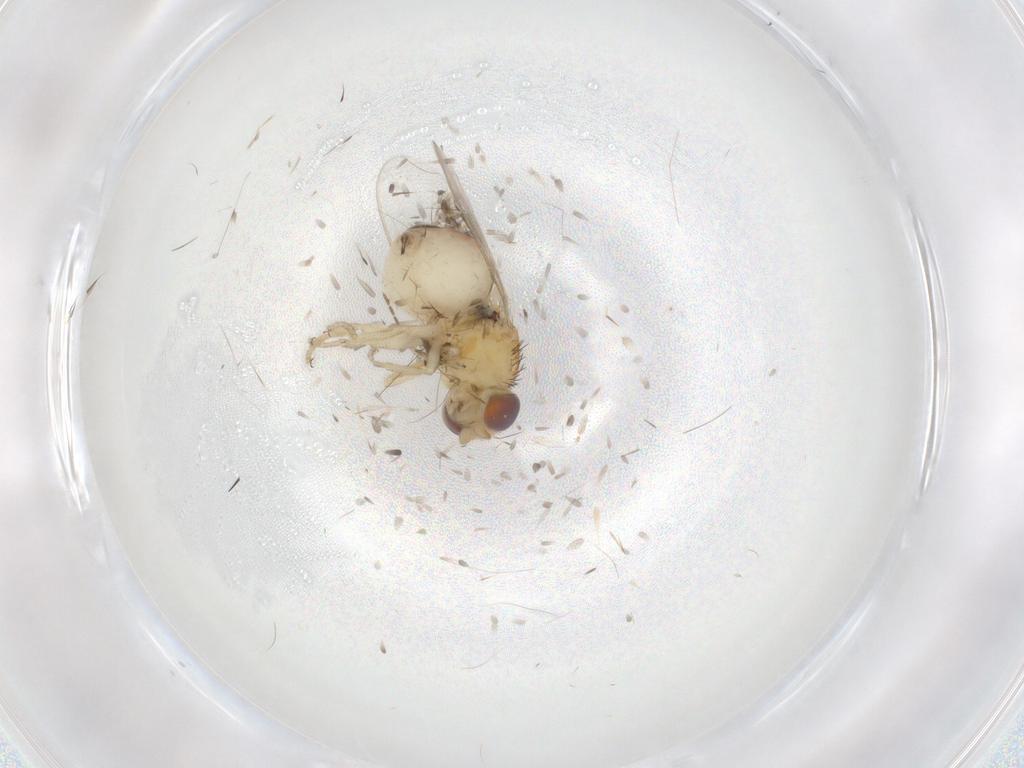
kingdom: Animalia
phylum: Arthropoda
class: Insecta
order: Diptera
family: Chloropidae
